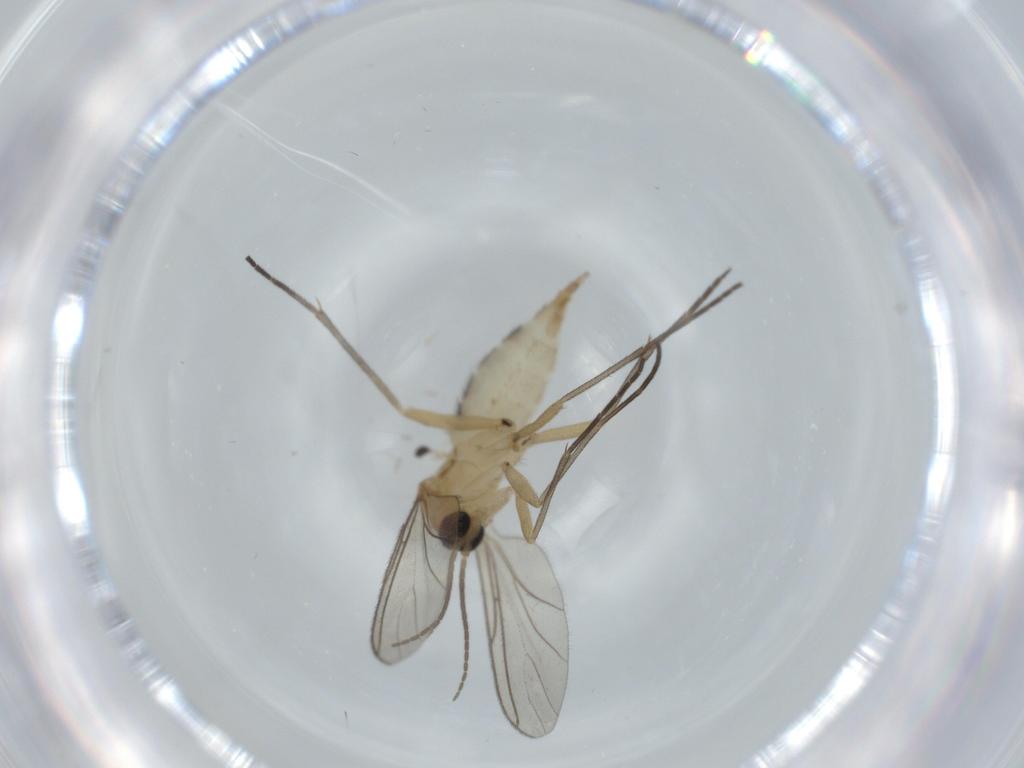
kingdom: Animalia
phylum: Arthropoda
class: Insecta
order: Diptera
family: Sciaridae
